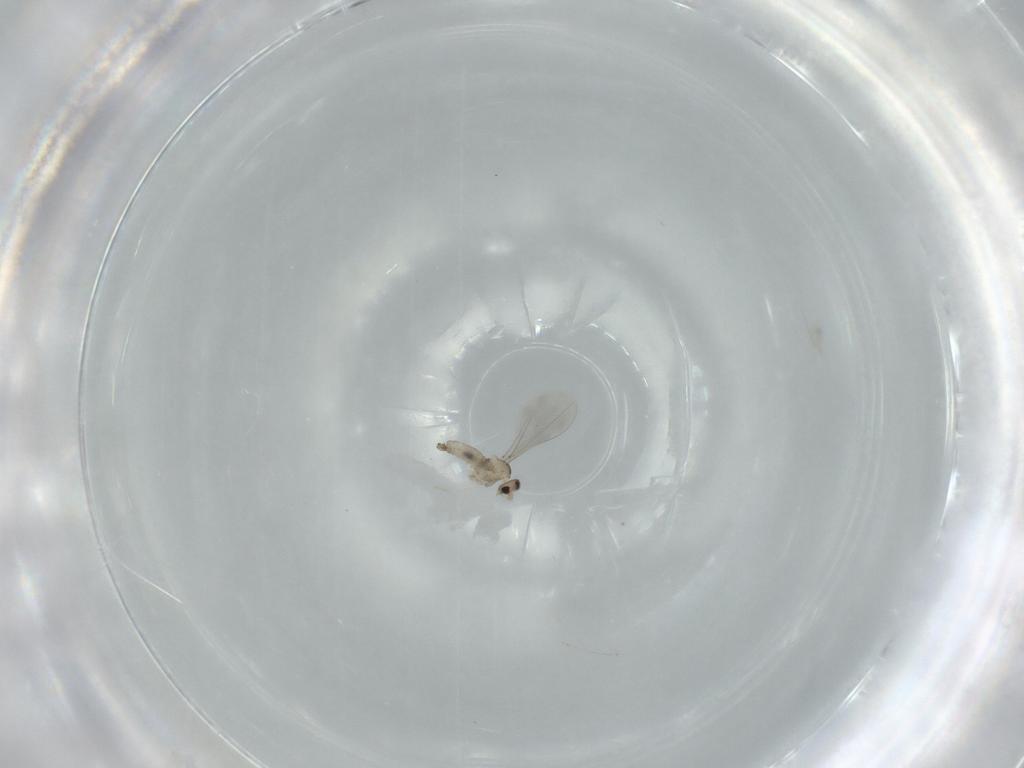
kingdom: Animalia
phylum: Arthropoda
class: Insecta
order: Diptera
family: Cecidomyiidae
